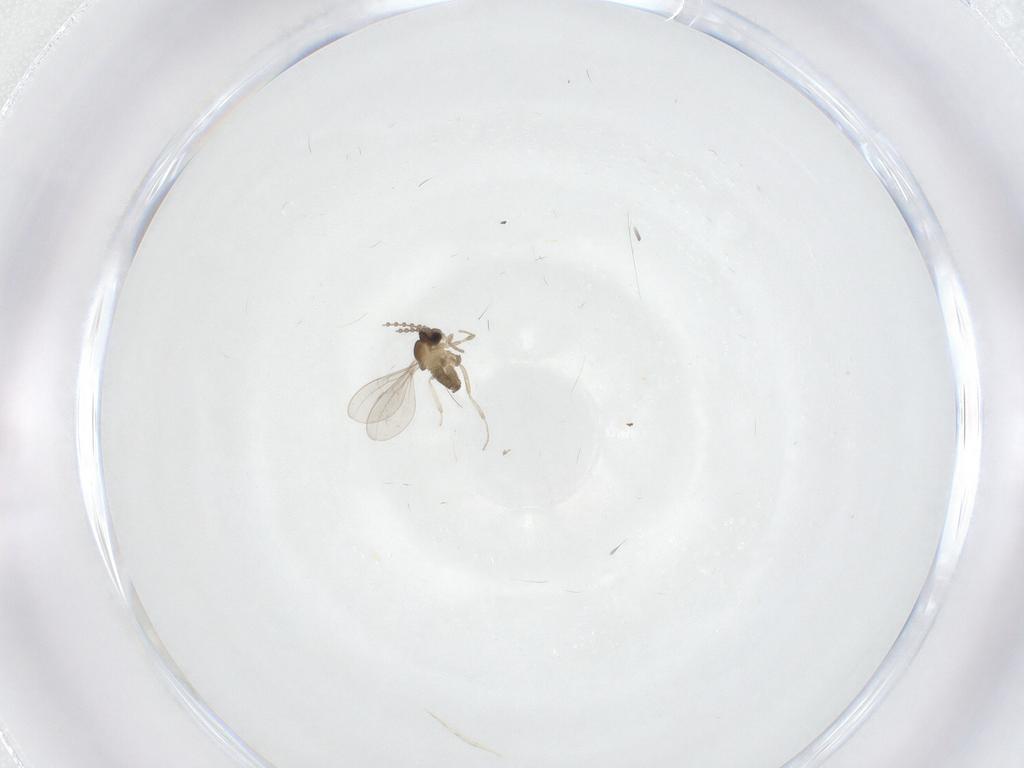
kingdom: Animalia
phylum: Arthropoda
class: Insecta
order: Diptera
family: Cecidomyiidae
